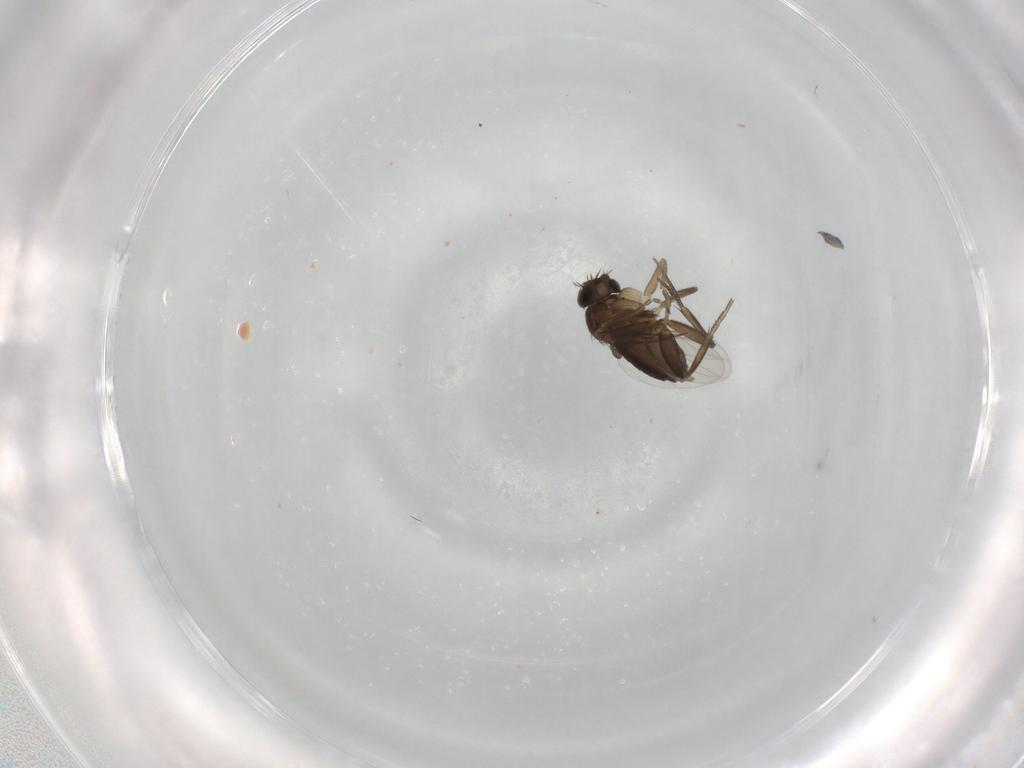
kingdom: Animalia
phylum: Arthropoda
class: Insecta
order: Diptera
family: Phoridae
